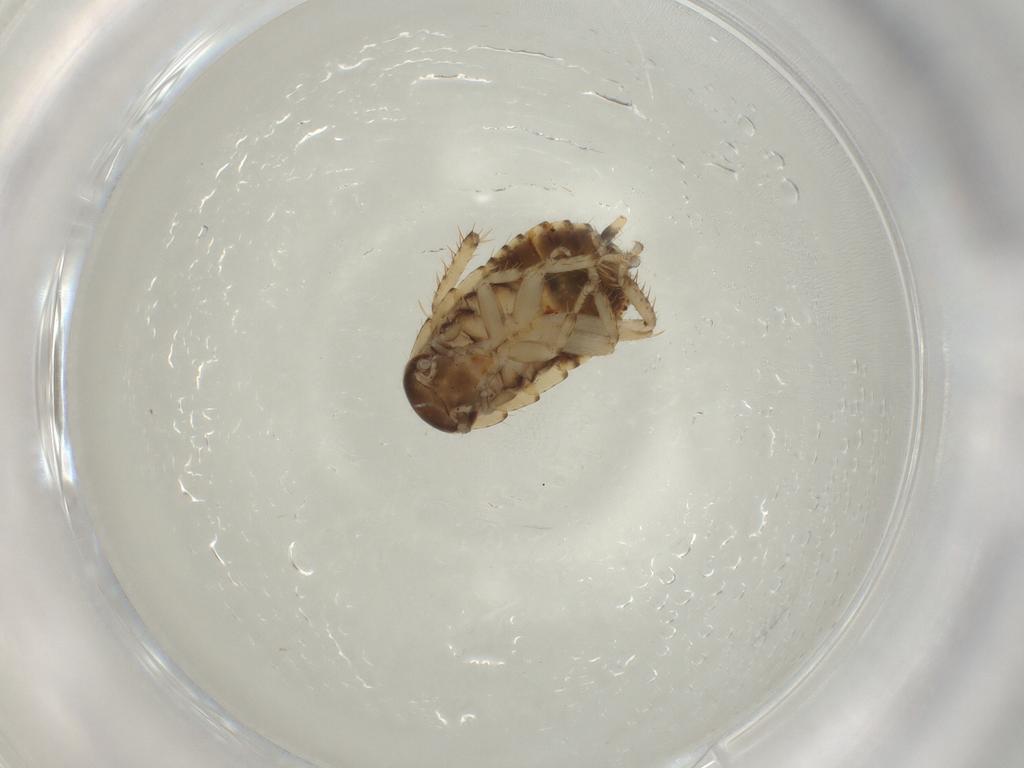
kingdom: Animalia
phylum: Arthropoda
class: Insecta
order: Blattodea
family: Blaberidae
